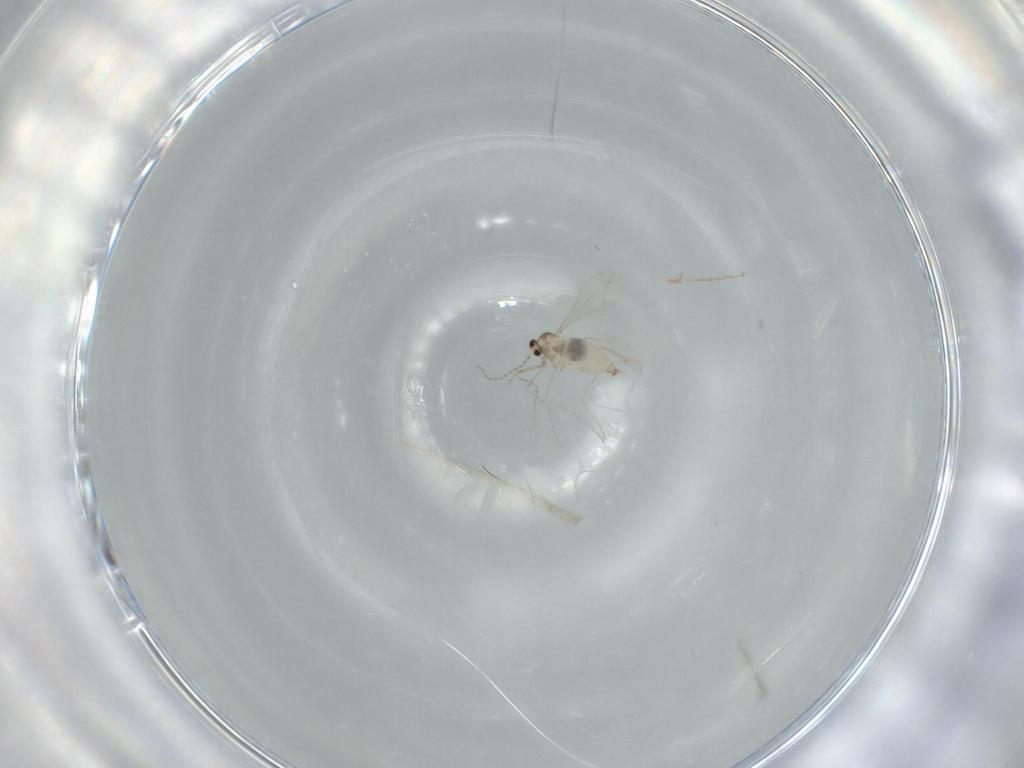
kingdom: Animalia
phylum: Arthropoda
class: Insecta
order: Diptera
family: Cecidomyiidae
